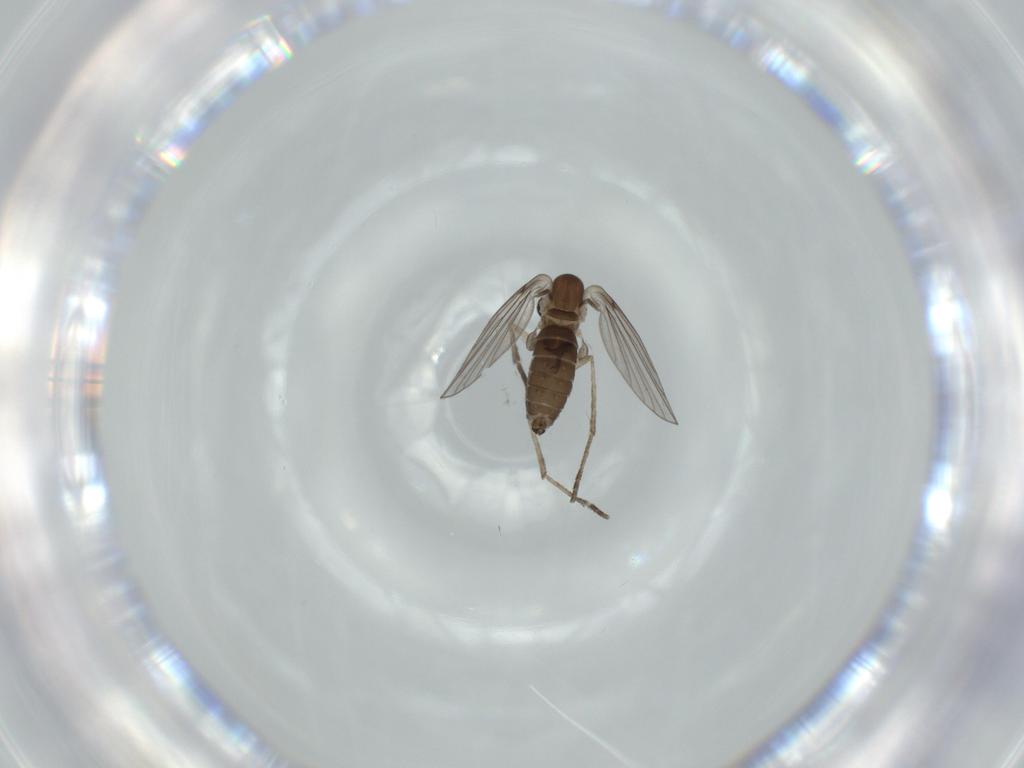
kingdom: Animalia
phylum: Arthropoda
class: Insecta
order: Diptera
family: Psychodidae
